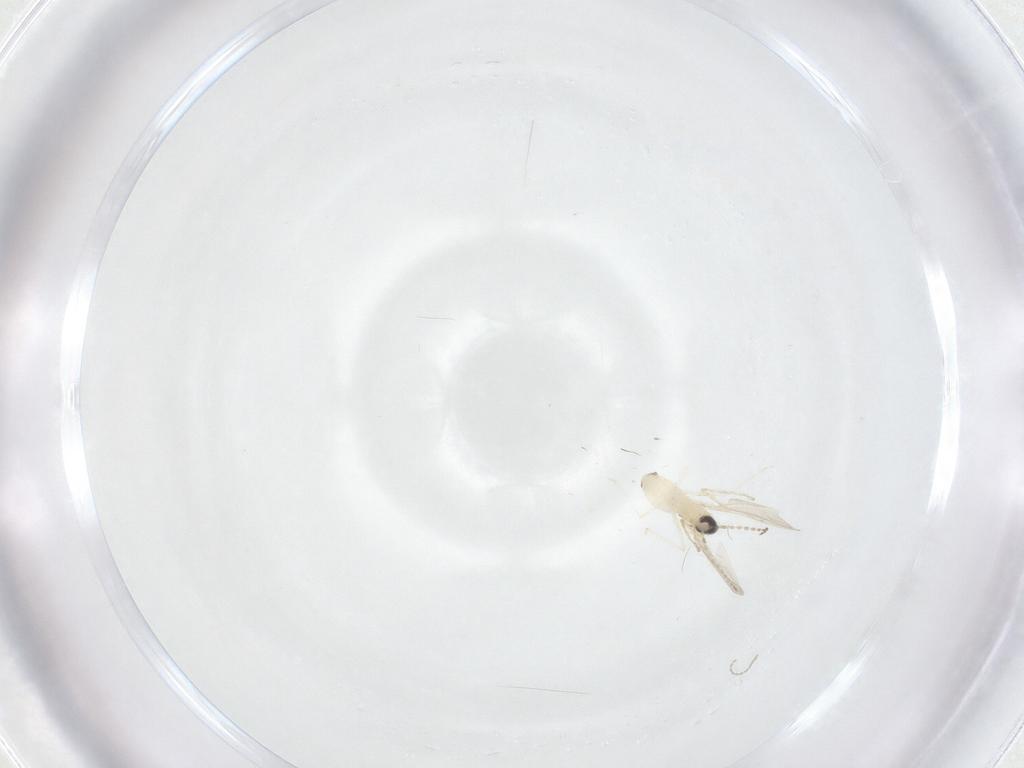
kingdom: Animalia
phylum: Arthropoda
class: Insecta
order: Diptera
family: Cecidomyiidae
